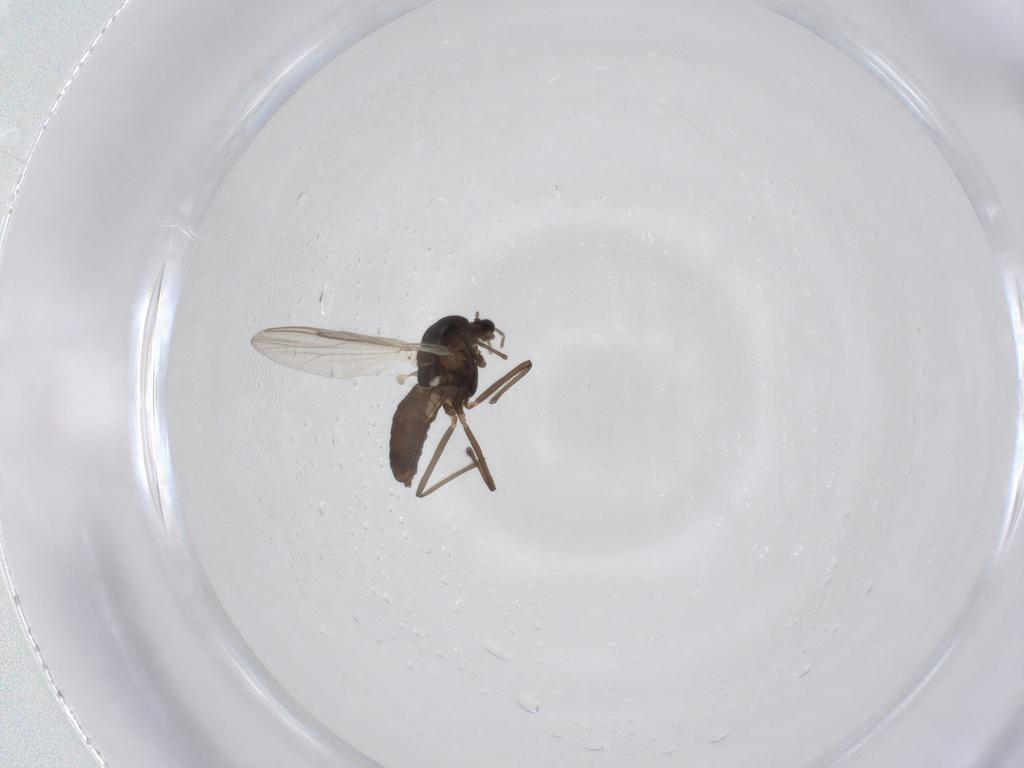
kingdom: Animalia
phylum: Arthropoda
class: Insecta
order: Diptera
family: Chironomidae
